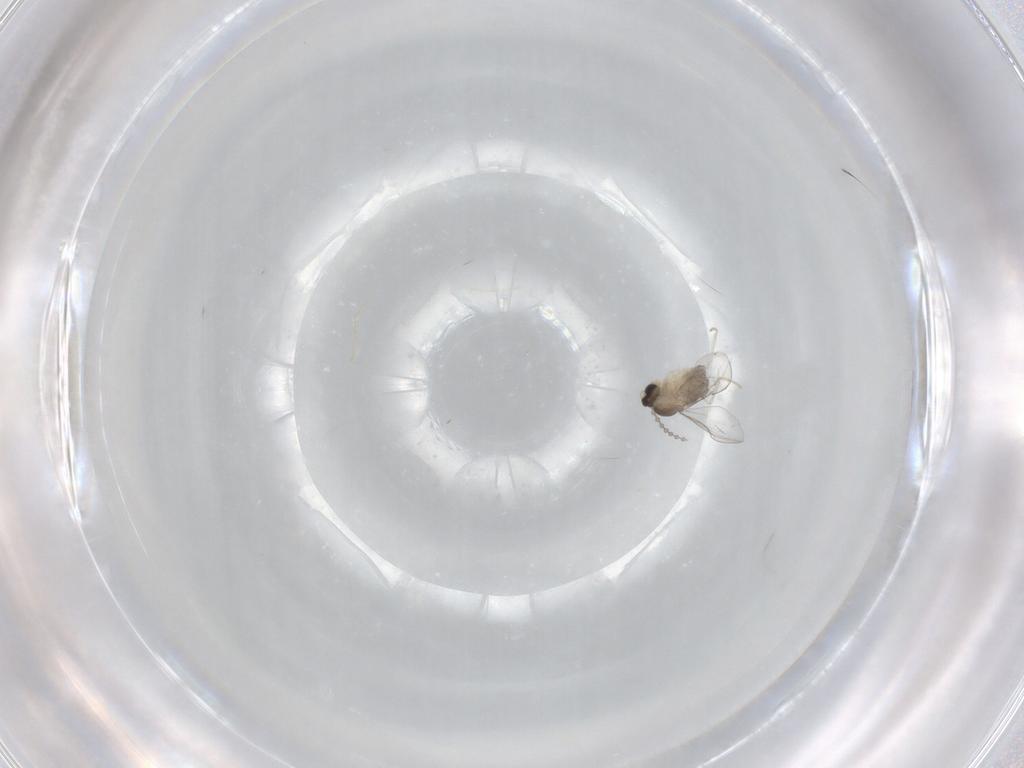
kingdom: Animalia
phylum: Arthropoda
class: Insecta
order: Diptera
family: Cecidomyiidae
